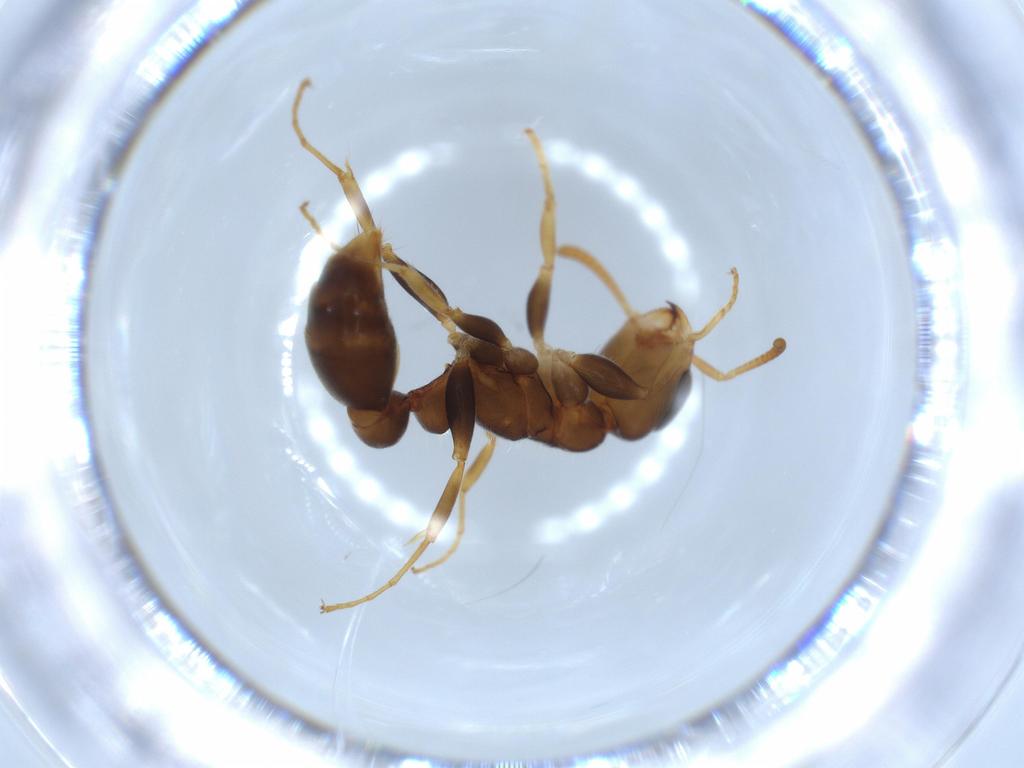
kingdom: Animalia
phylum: Arthropoda
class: Insecta
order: Hymenoptera
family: Formicidae
